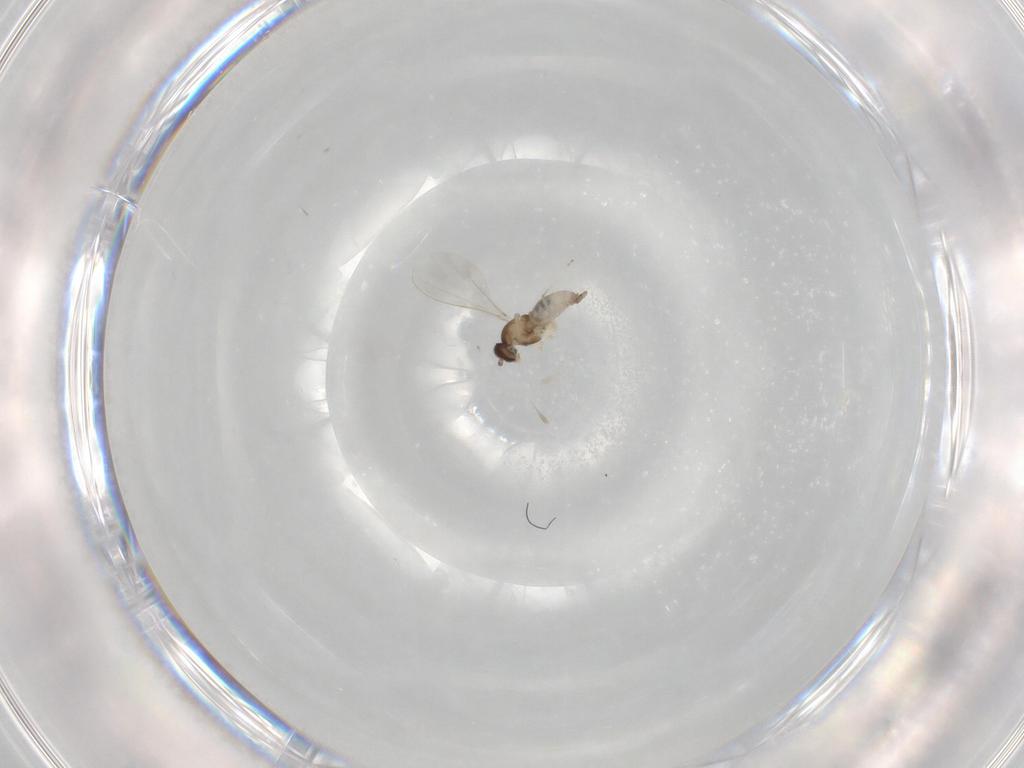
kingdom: Animalia
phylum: Arthropoda
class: Insecta
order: Diptera
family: Cecidomyiidae
